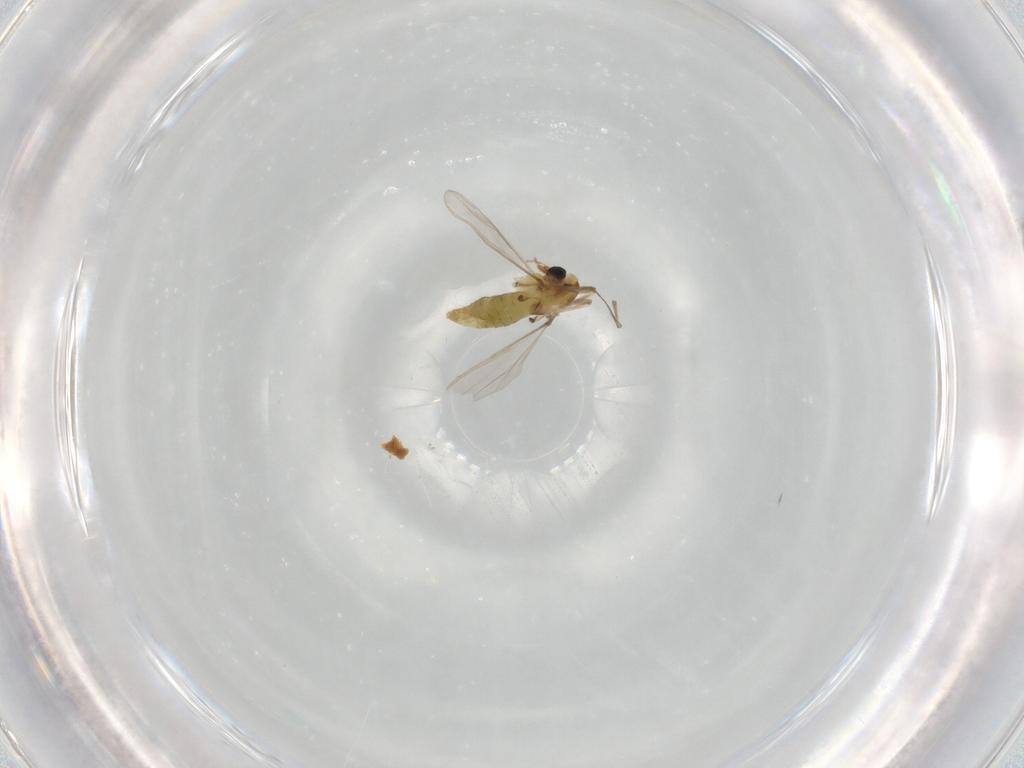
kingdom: Animalia
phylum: Arthropoda
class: Insecta
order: Diptera
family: Chironomidae
